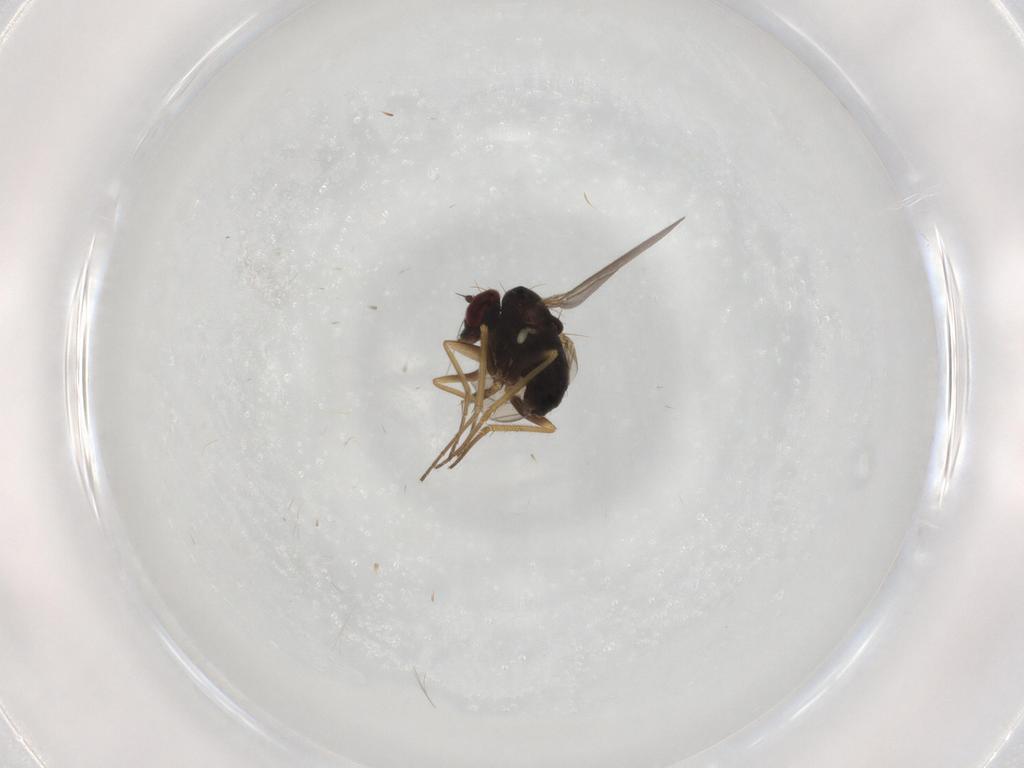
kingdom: Animalia
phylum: Arthropoda
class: Insecta
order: Diptera
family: Dolichopodidae
